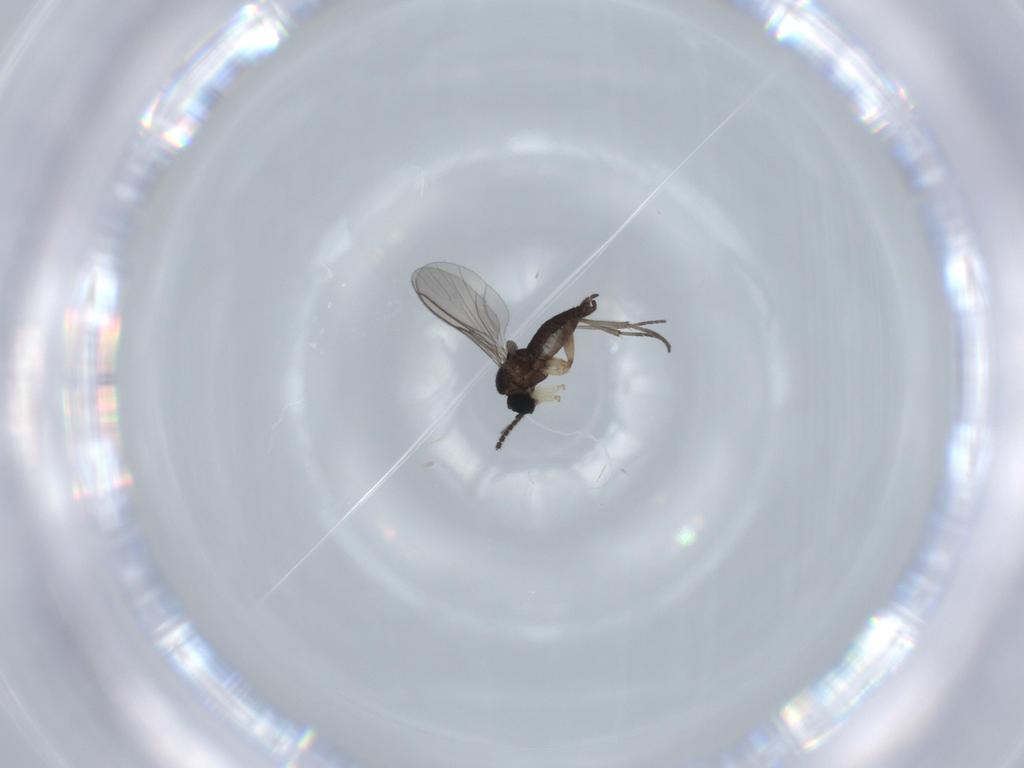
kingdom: Animalia
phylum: Arthropoda
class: Insecta
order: Diptera
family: Sciaridae
